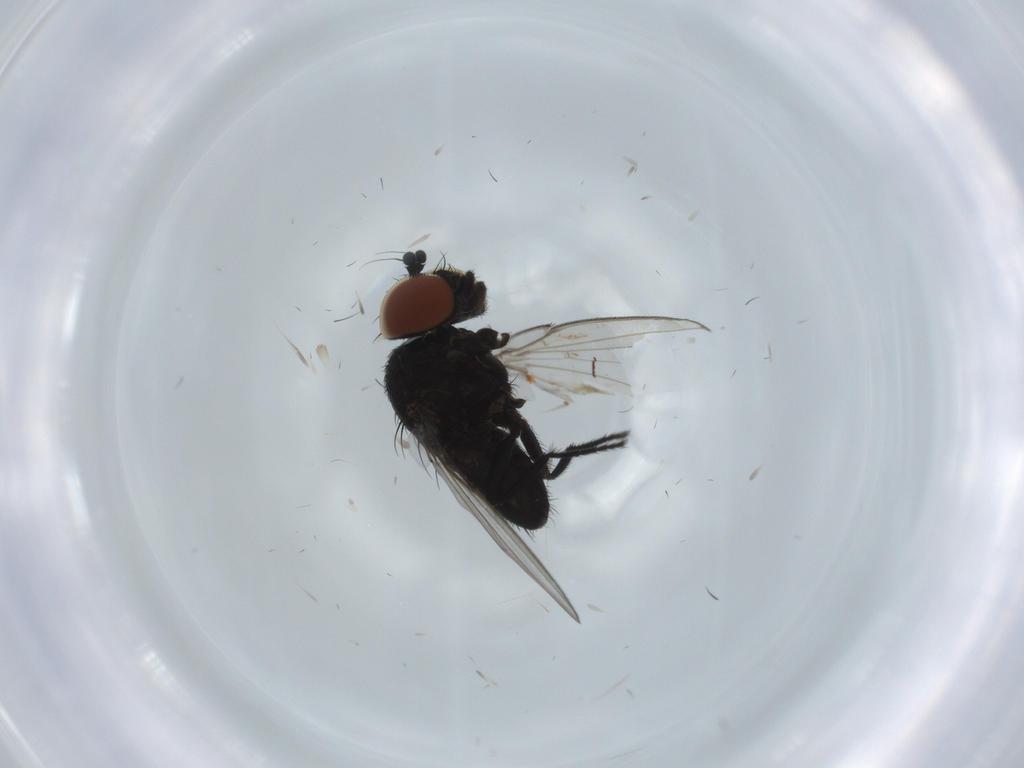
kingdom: Animalia
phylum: Arthropoda
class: Insecta
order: Diptera
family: Milichiidae
